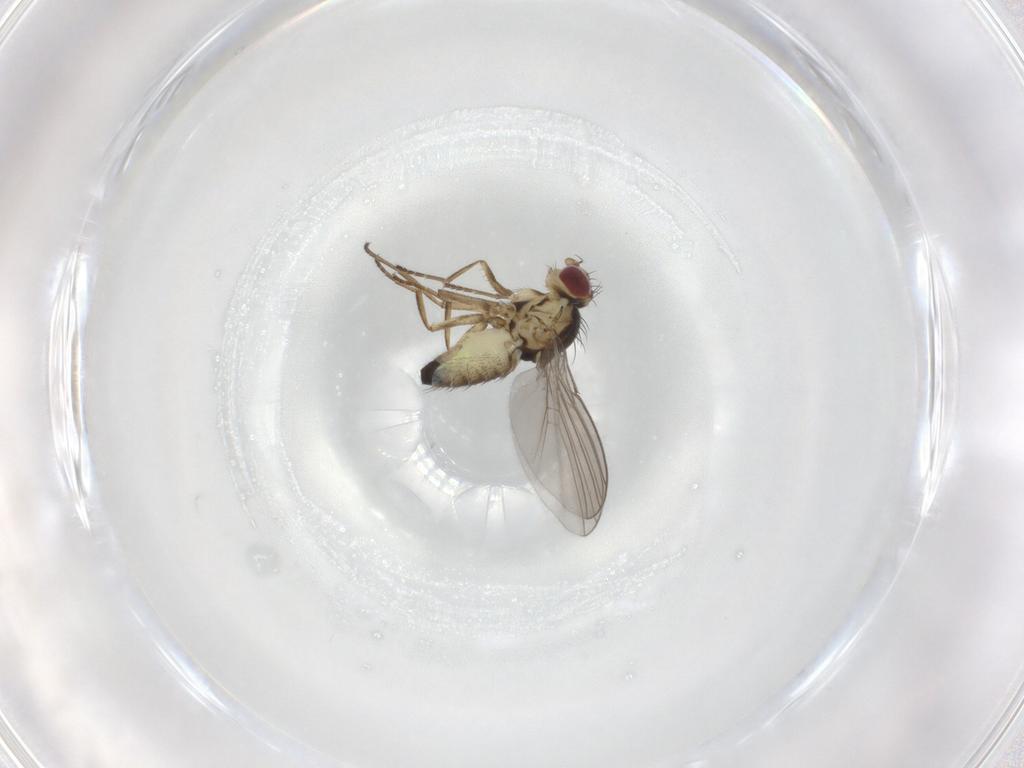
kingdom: Animalia
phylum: Arthropoda
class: Insecta
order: Diptera
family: Agromyzidae
